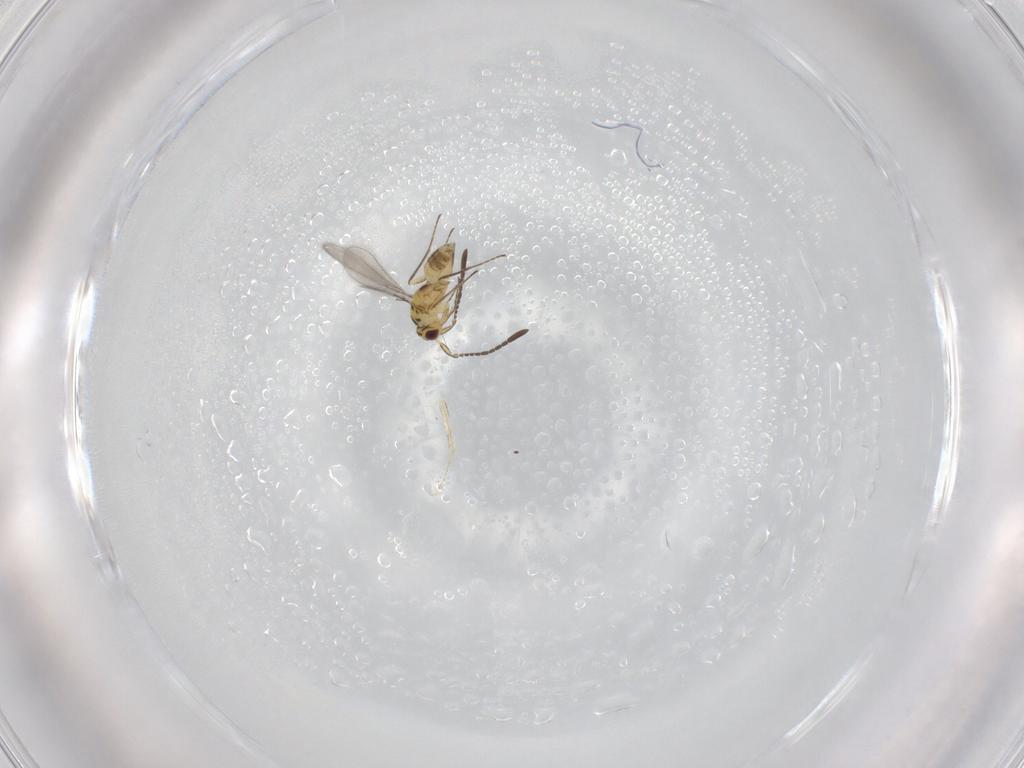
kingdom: Animalia
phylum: Arthropoda
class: Insecta
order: Hymenoptera
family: Mymaridae
